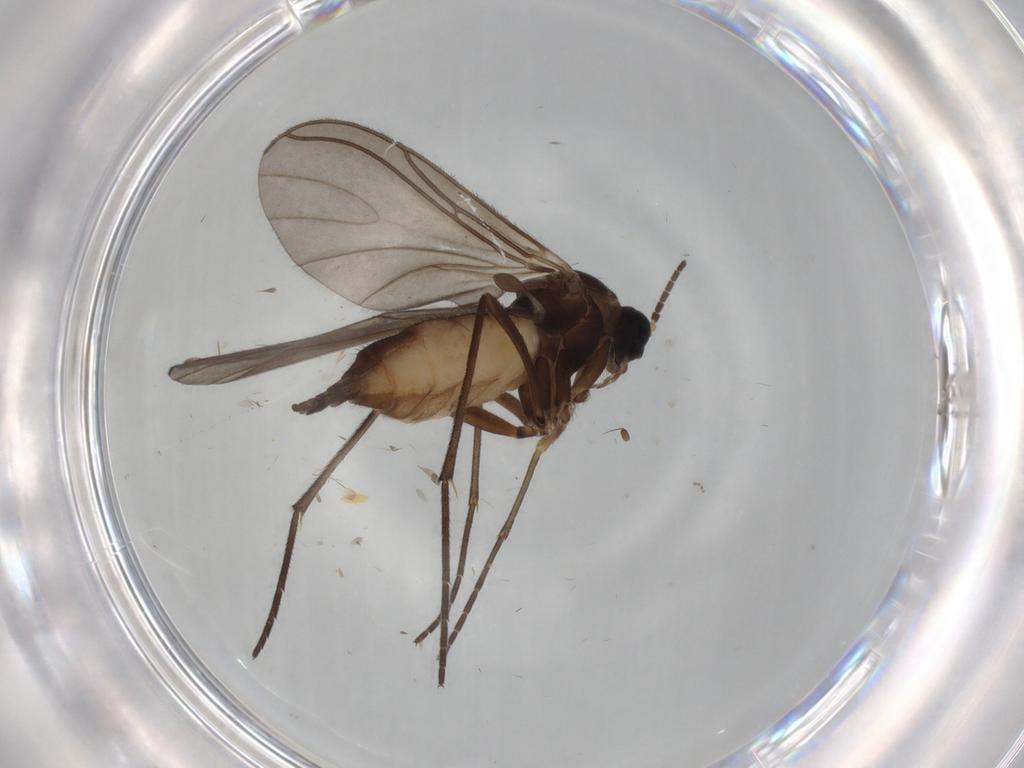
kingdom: Animalia
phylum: Arthropoda
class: Insecta
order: Diptera
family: Sciaridae
